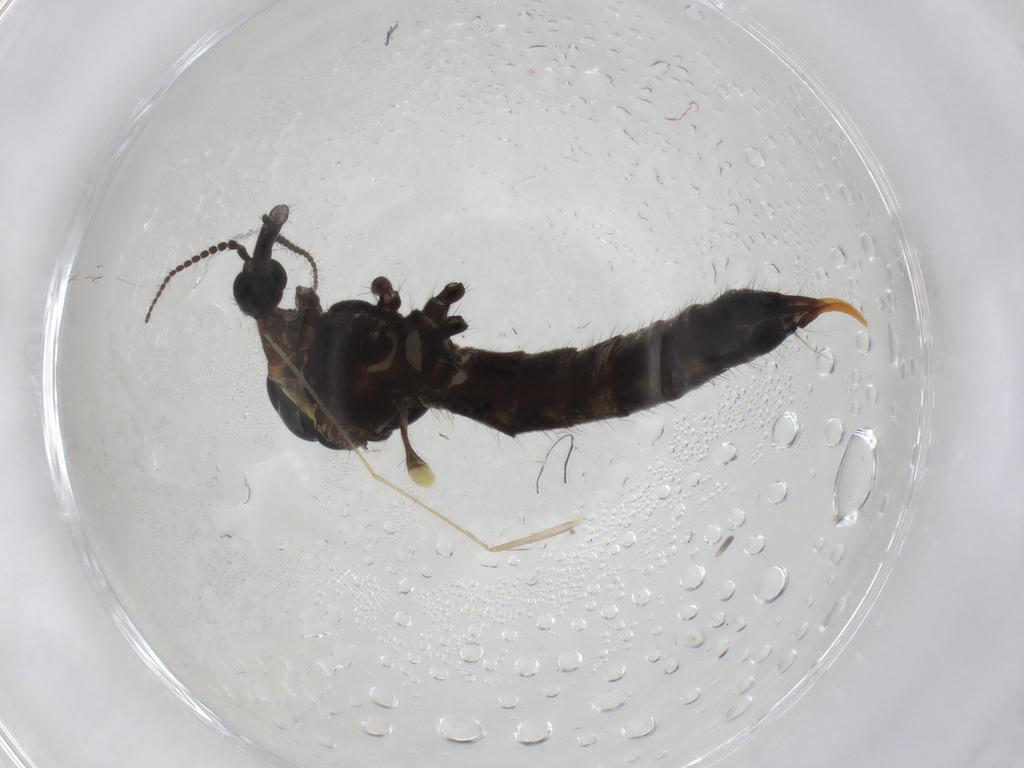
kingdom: Animalia
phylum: Arthropoda
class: Insecta
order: Diptera
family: Limoniidae
